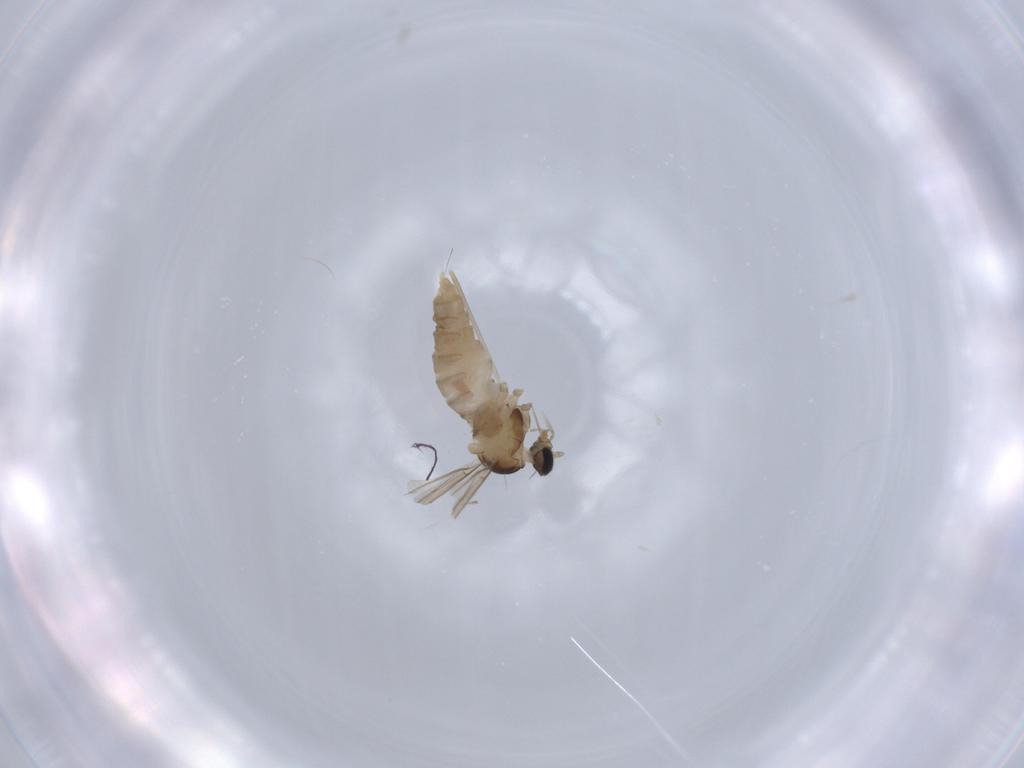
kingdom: Animalia
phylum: Arthropoda
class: Insecta
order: Diptera
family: Cecidomyiidae
